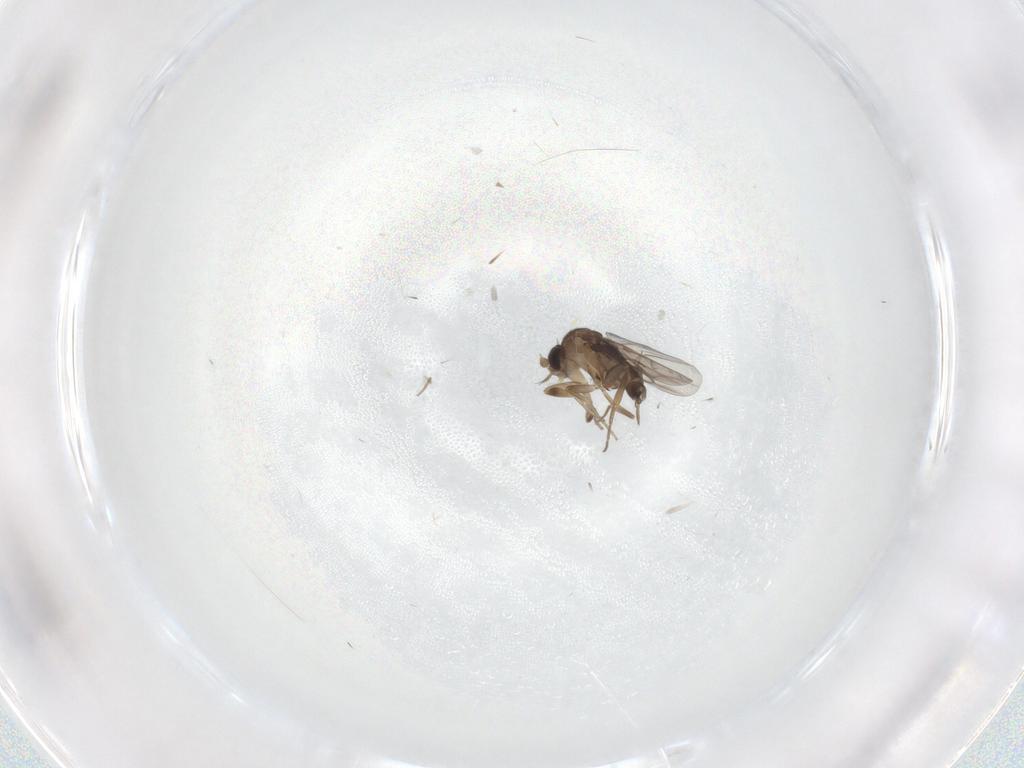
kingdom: Animalia
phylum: Arthropoda
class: Insecta
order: Diptera
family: Phoridae
